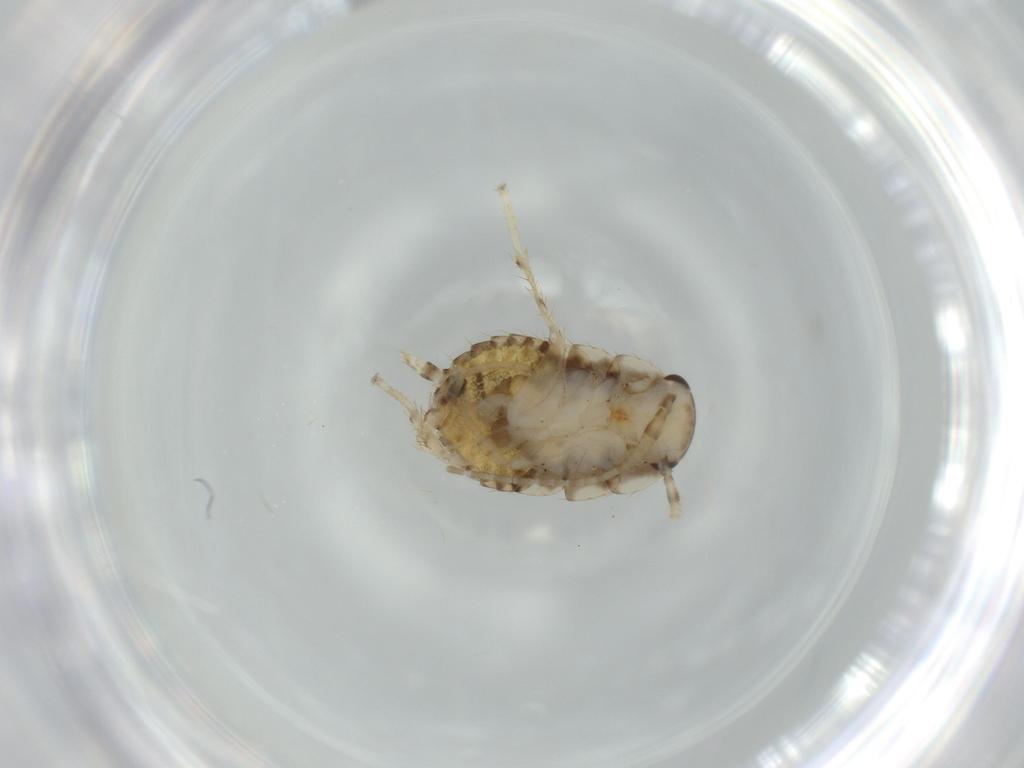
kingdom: Animalia
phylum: Arthropoda
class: Insecta
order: Blattodea
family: Ectobiidae
